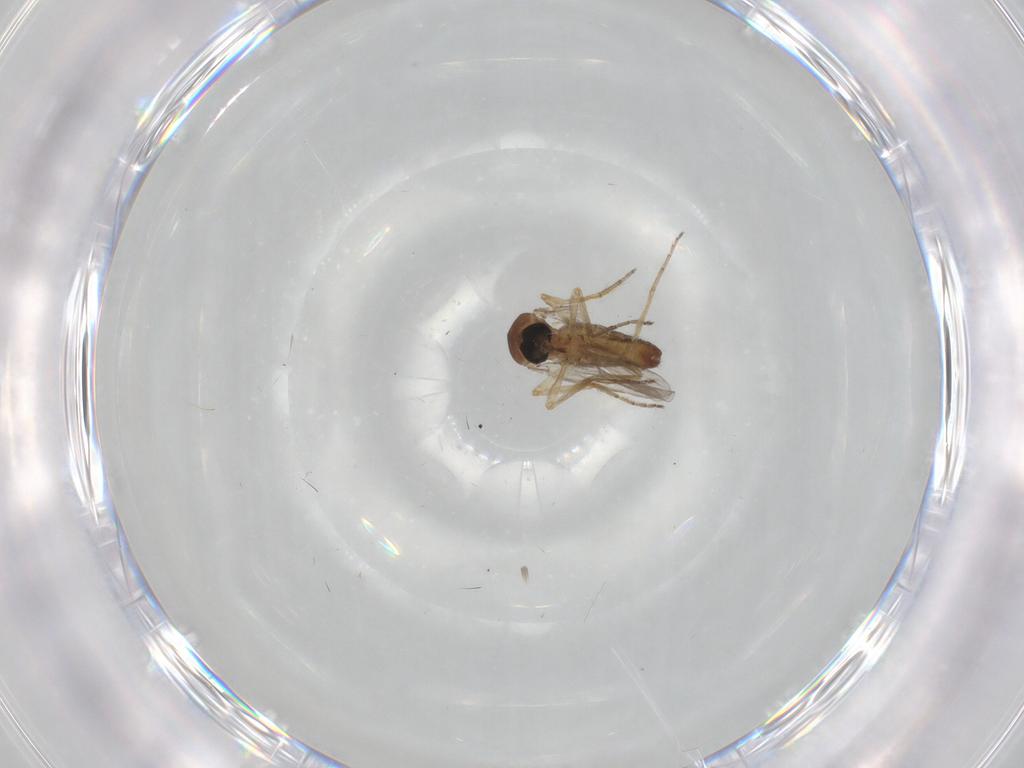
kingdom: Animalia
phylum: Arthropoda
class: Insecta
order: Diptera
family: Ceratopogonidae
